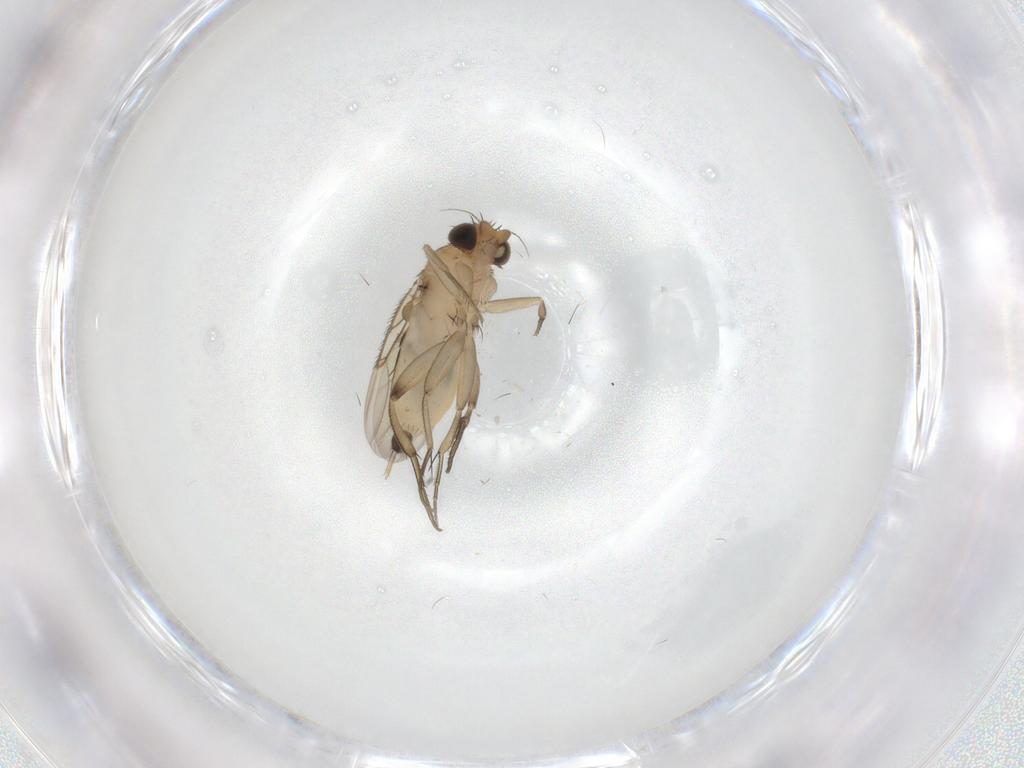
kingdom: Animalia
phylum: Arthropoda
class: Insecta
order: Diptera
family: Phoridae
